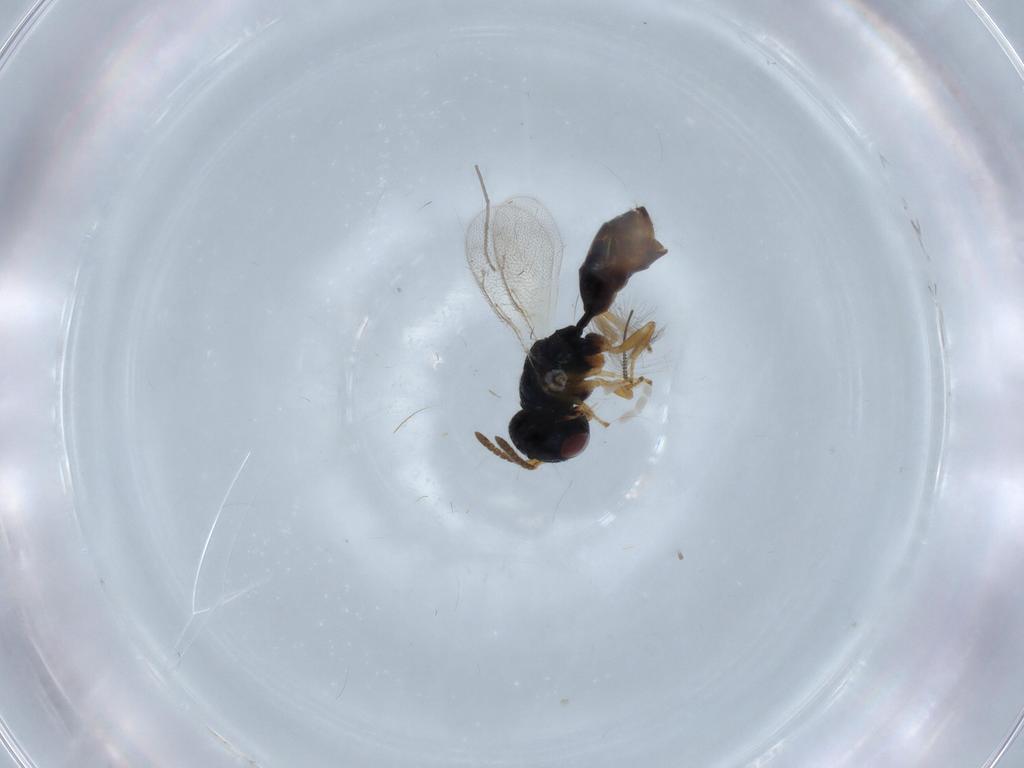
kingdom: Animalia
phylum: Arthropoda
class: Insecta
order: Hymenoptera
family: Pteromalidae
